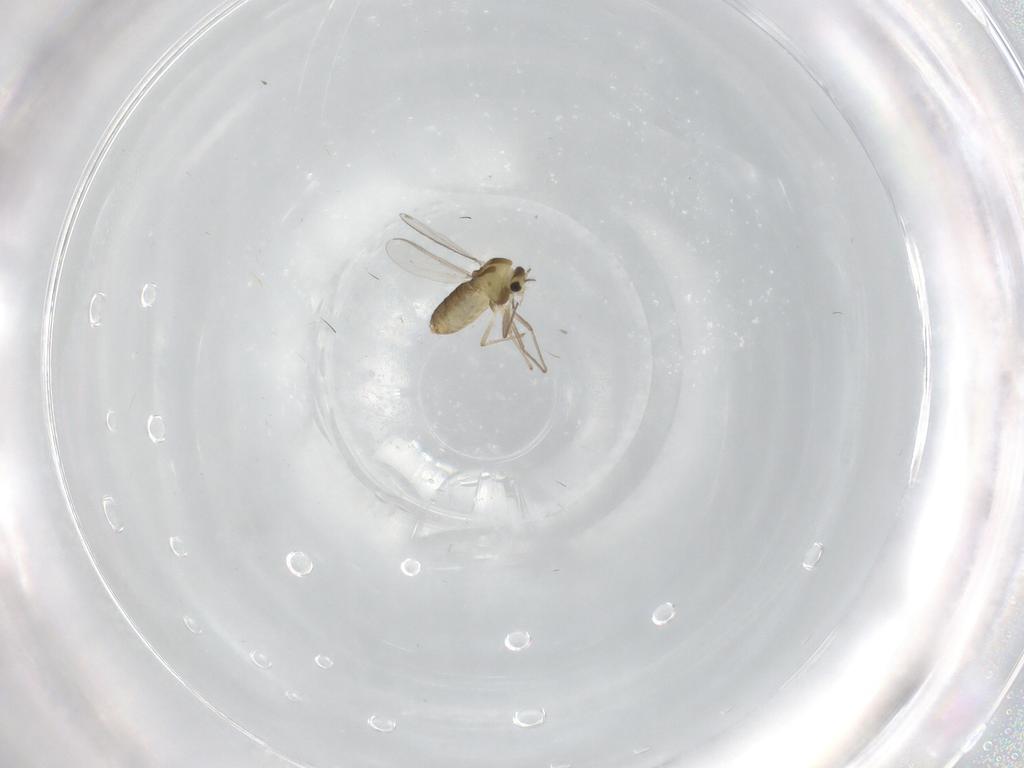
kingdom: Animalia
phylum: Arthropoda
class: Insecta
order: Diptera
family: Chironomidae
